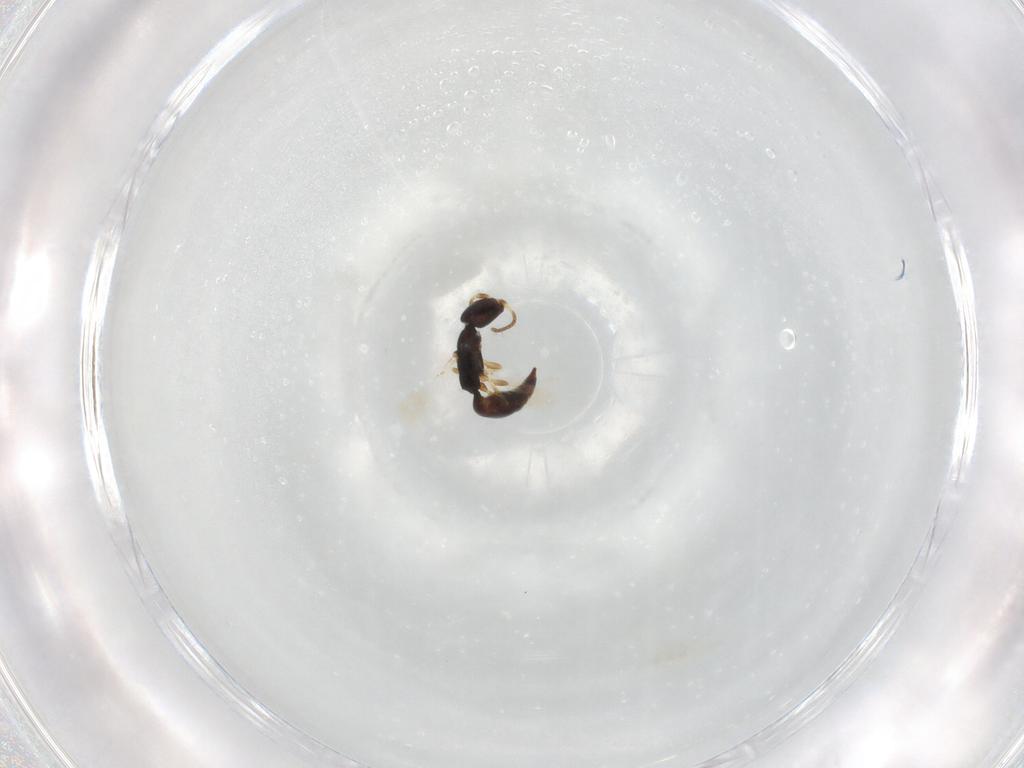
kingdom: Animalia
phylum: Arthropoda
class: Insecta
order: Hymenoptera
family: Bethylidae
